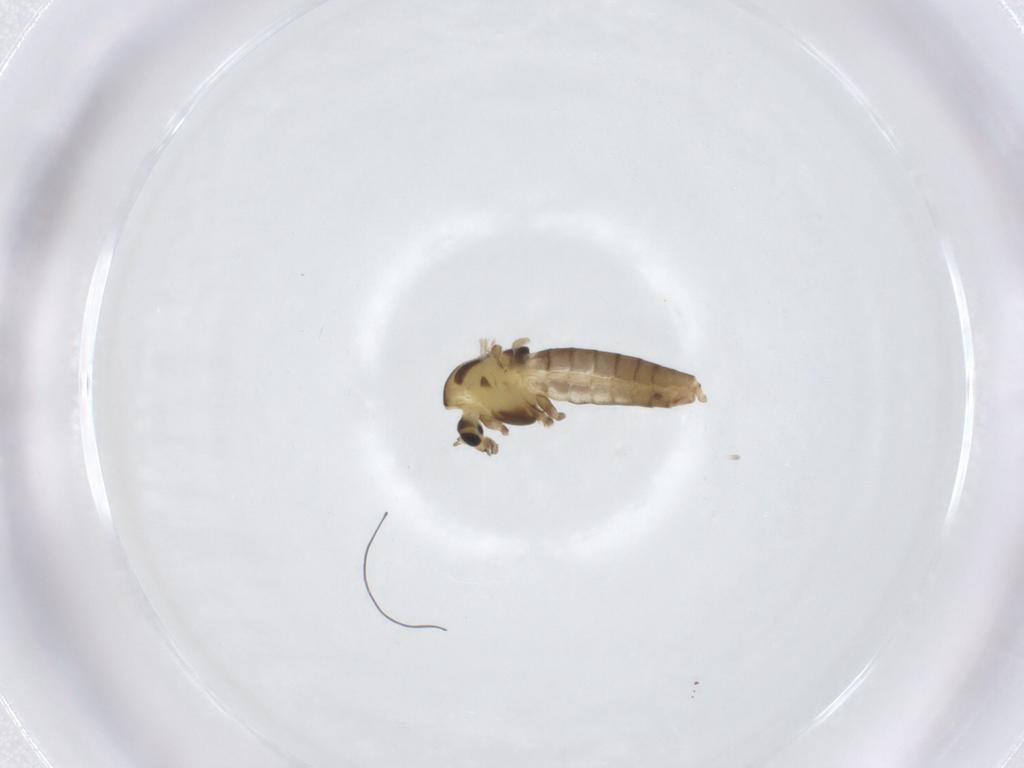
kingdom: Animalia
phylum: Arthropoda
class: Insecta
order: Diptera
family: Chironomidae
